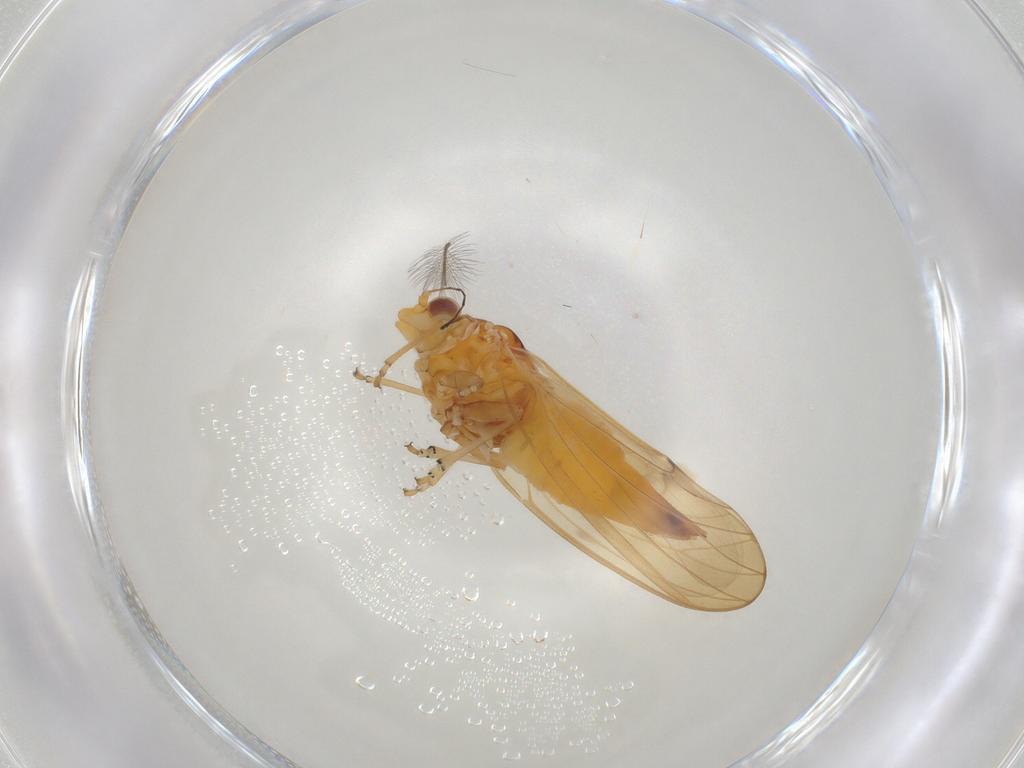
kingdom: Animalia
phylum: Arthropoda
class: Insecta
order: Hemiptera
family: Psylloidea_incertae_sedis
